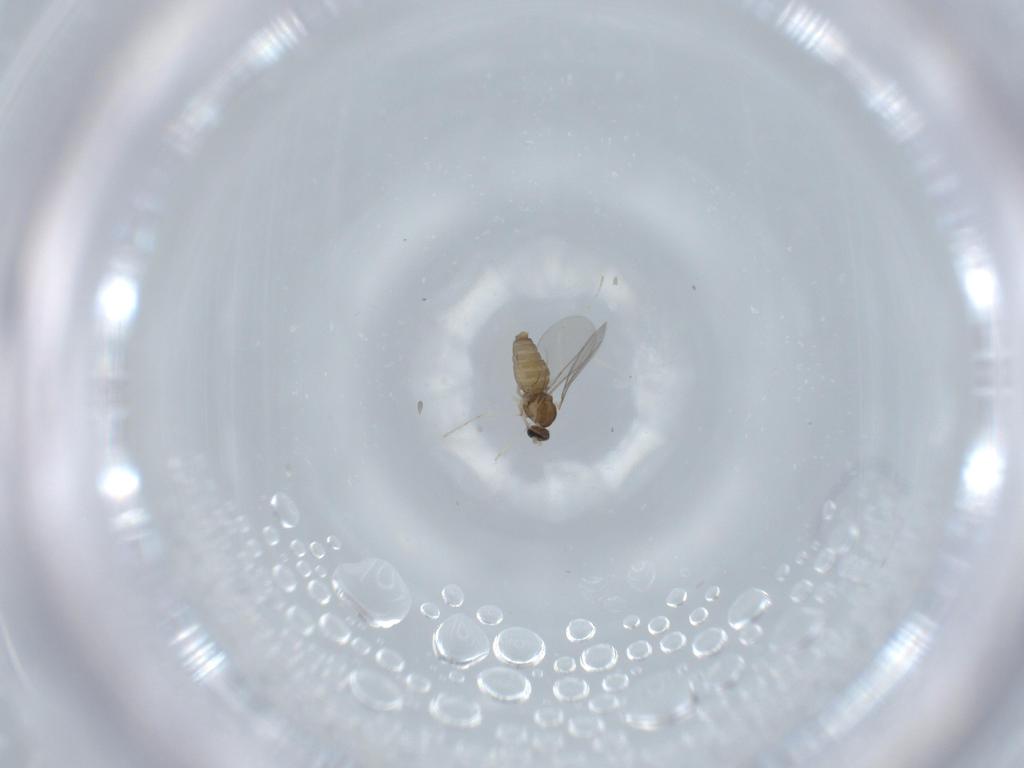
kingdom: Animalia
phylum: Arthropoda
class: Insecta
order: Diptera
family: Cecidomyiidae
